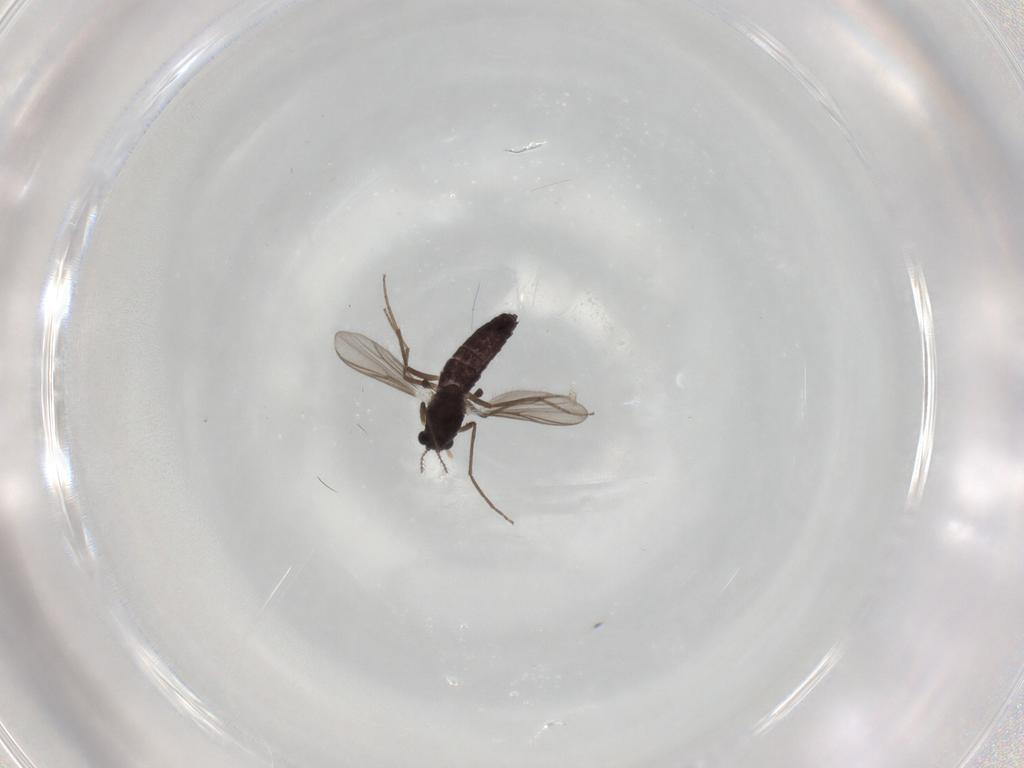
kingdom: Animalia
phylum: Arthropoda
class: Insecta
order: Diptera
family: Chironomidae
